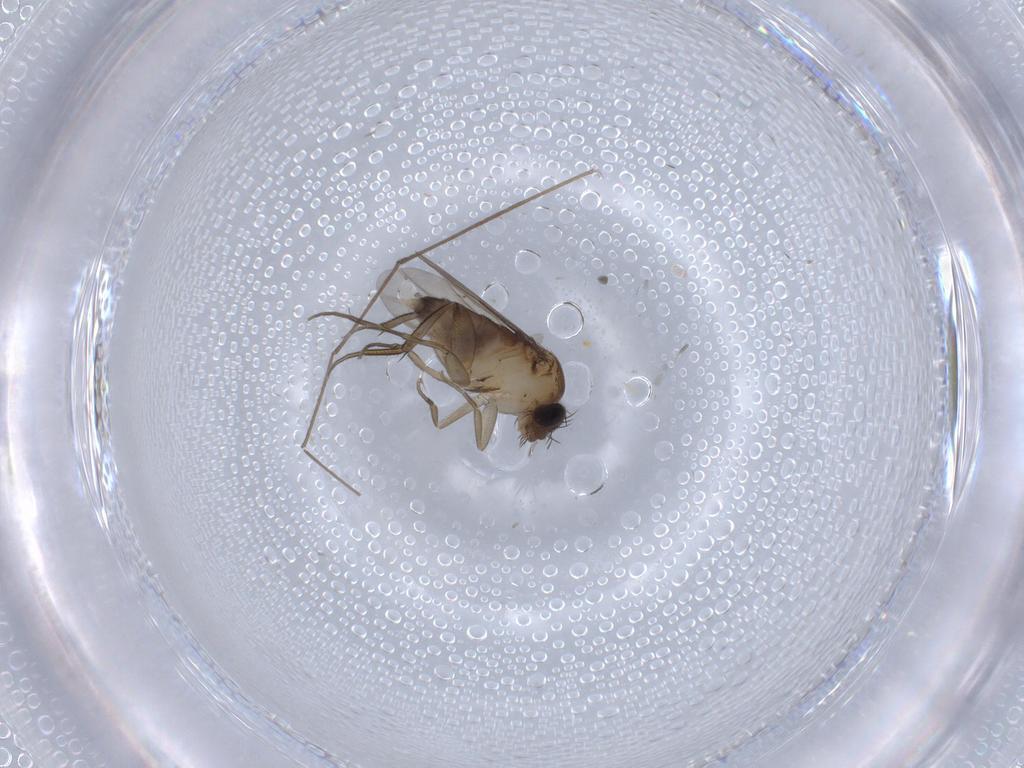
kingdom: Animalia
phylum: Arthropoda
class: Insecta
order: Diptera
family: Phoridae
